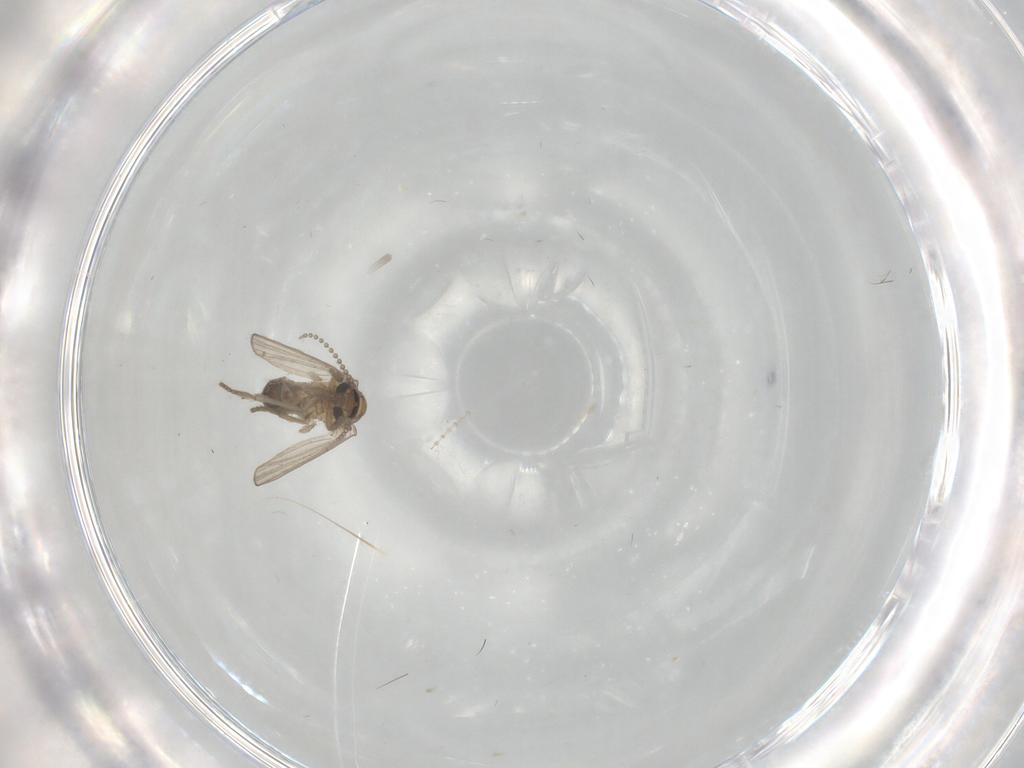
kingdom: Animalia
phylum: Arthropoda
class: Insecta
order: Diptera
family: Psychodidae
